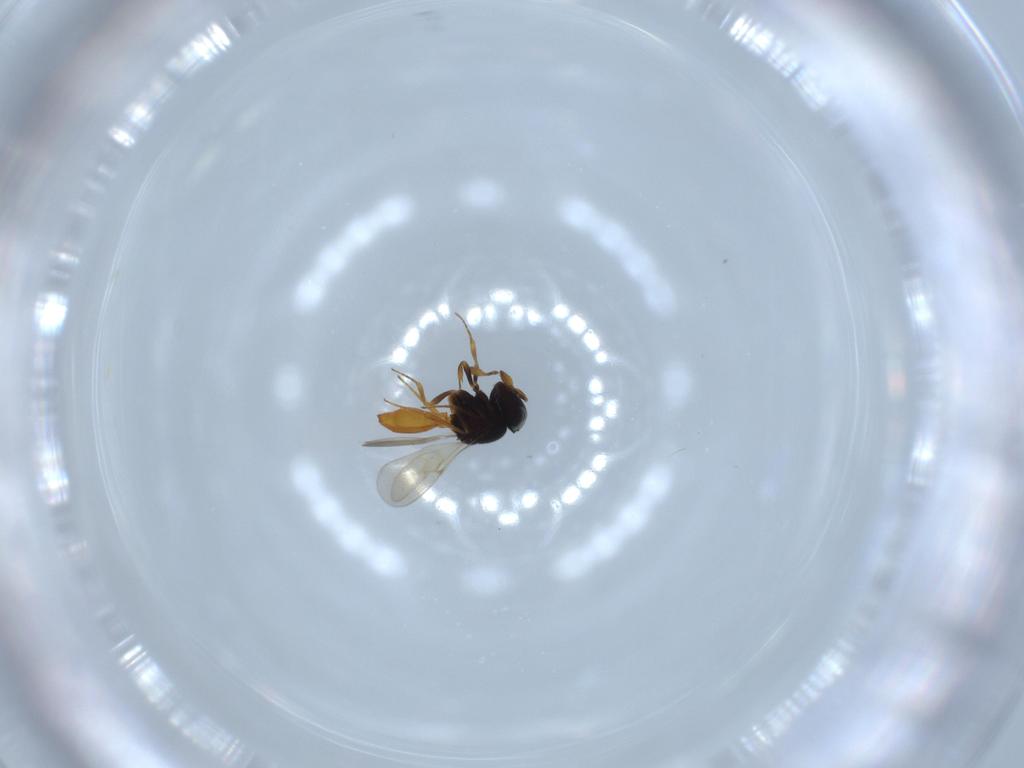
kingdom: Animalia
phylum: Arthropoda
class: Insecta
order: Hymenoptera
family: Scelionidae
